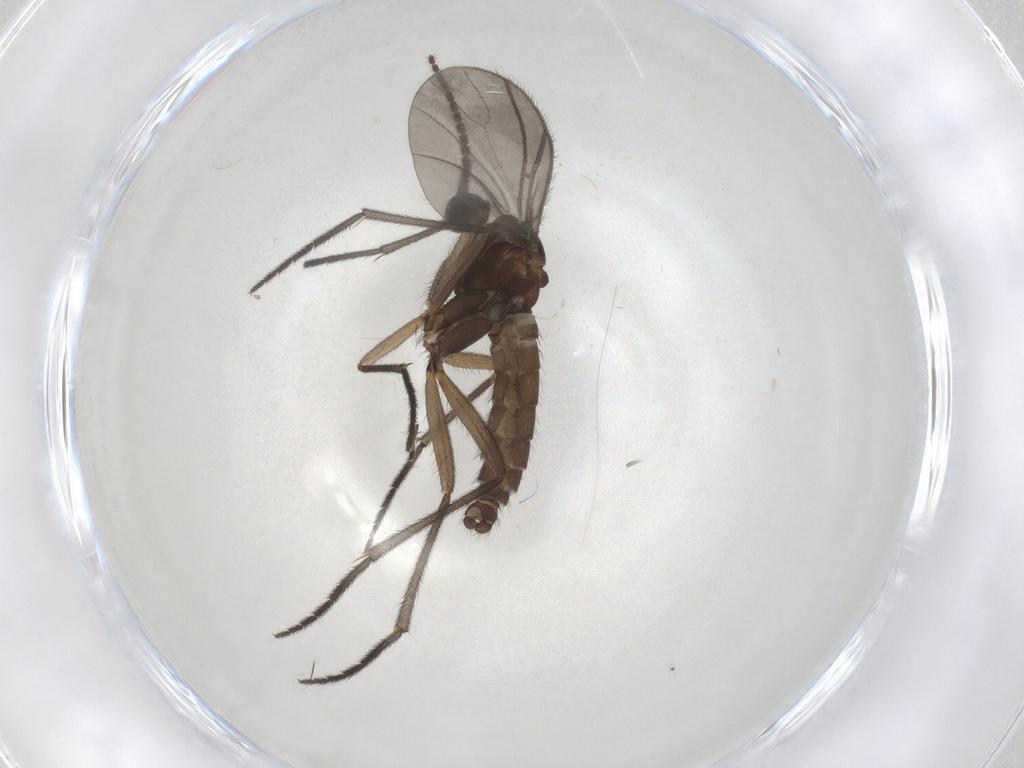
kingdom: Animalia
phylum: Arthropoda
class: Insecta
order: Diptera
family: Sciaridae
